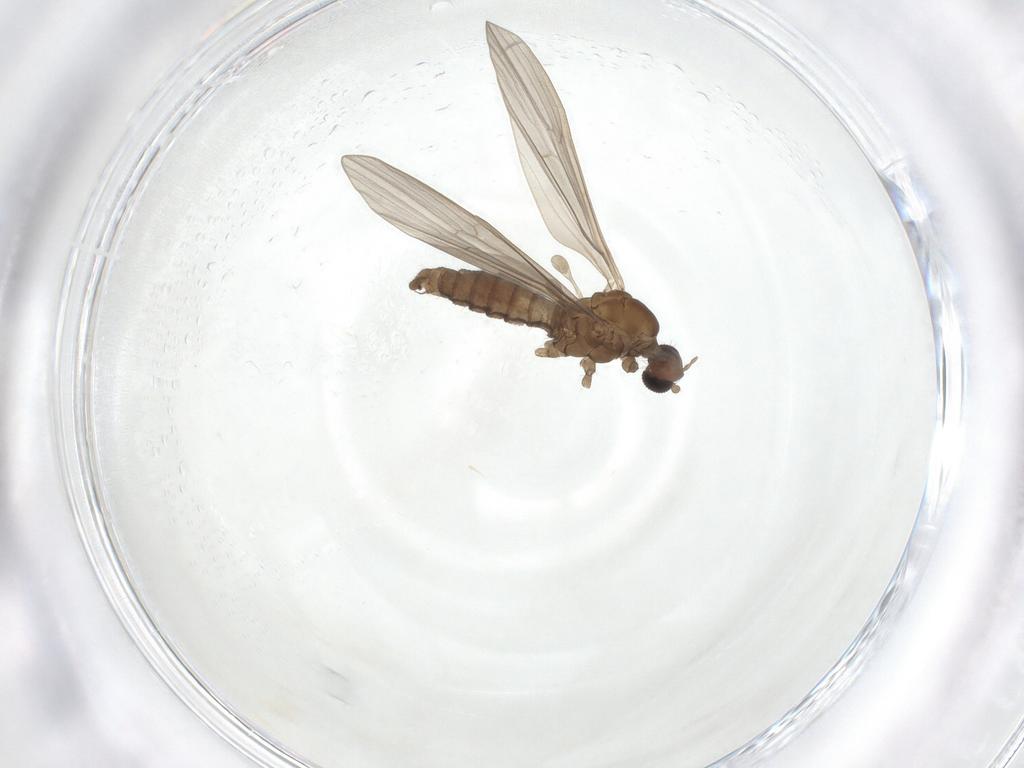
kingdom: Animalia
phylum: Arthropoda
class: Insecta
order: Diptera
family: Limoniidae
